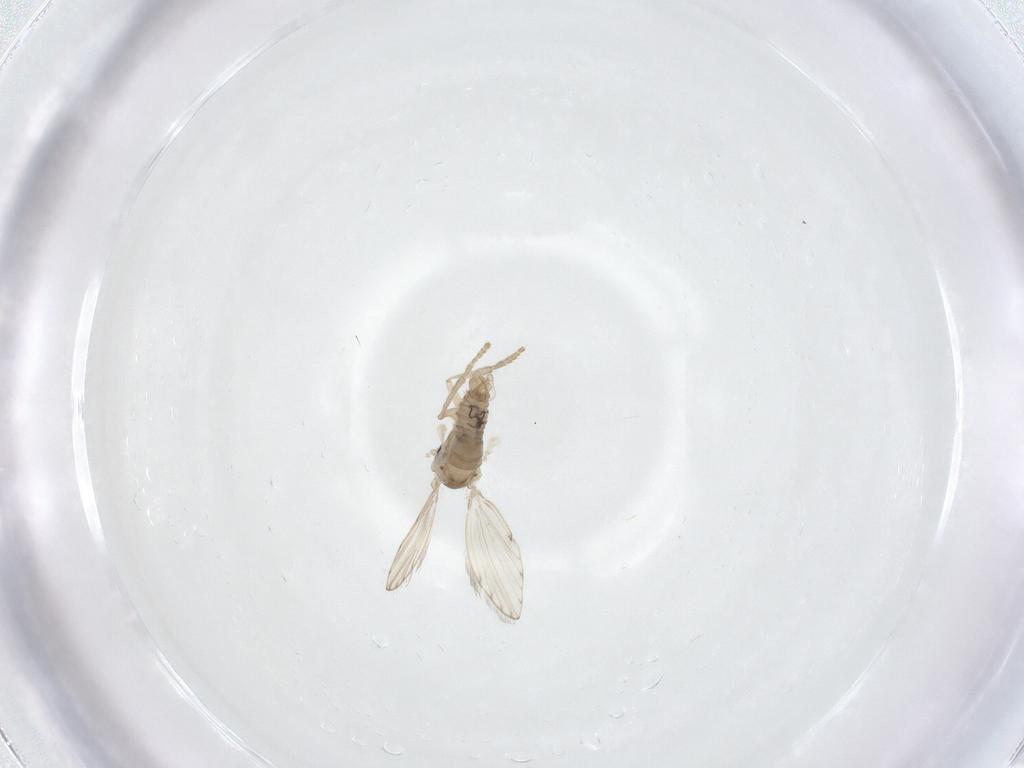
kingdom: Animalia
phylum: Arthropoda
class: Insecta
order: Diptera
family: Psychodidae
